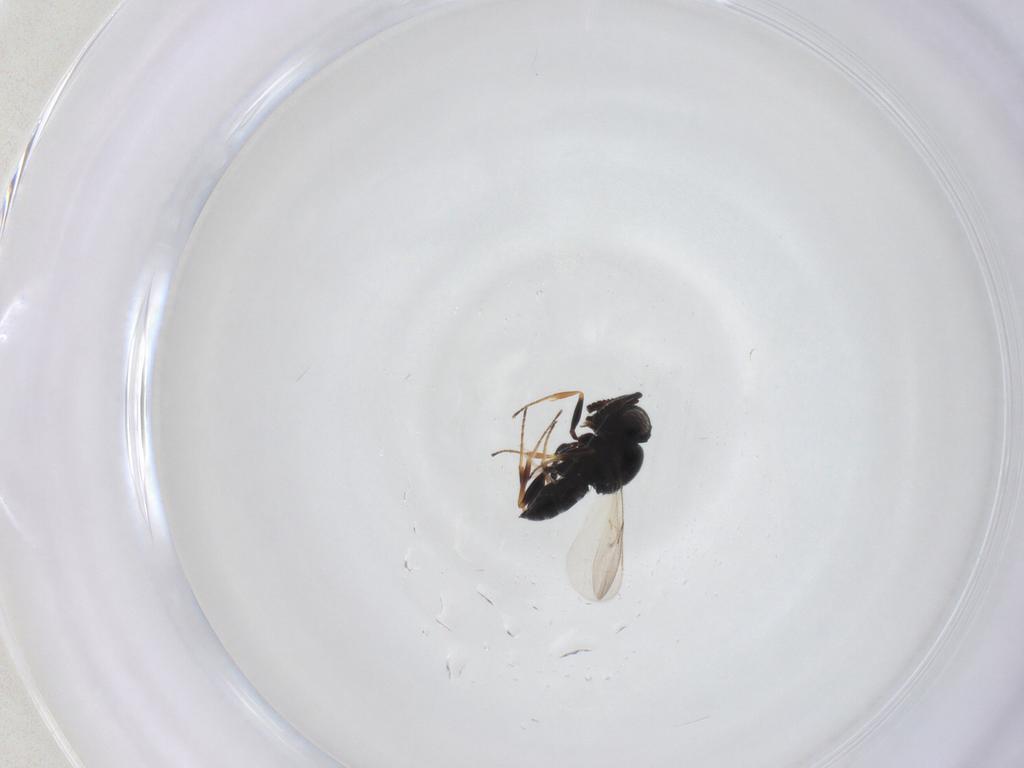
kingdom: Animalia
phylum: Arthropoda
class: Insecta
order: Hymenoptera
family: Scelionidae
